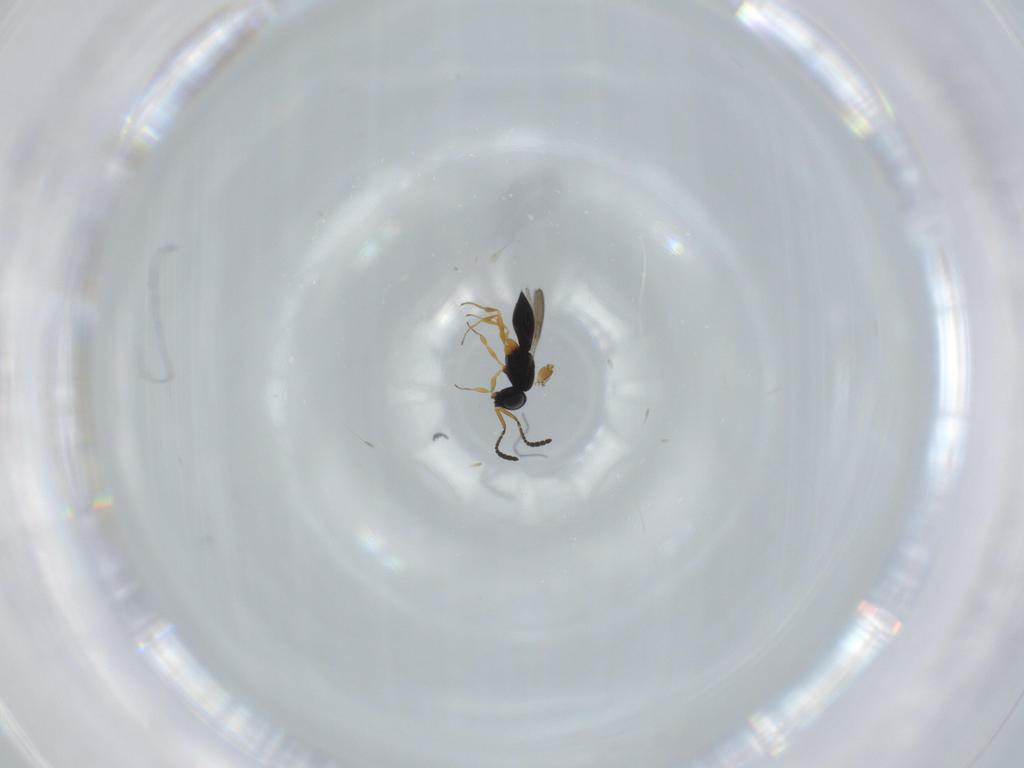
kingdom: Animalia
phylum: Arthropoda
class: Insecta
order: Hymenoptera
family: Scelionidae
